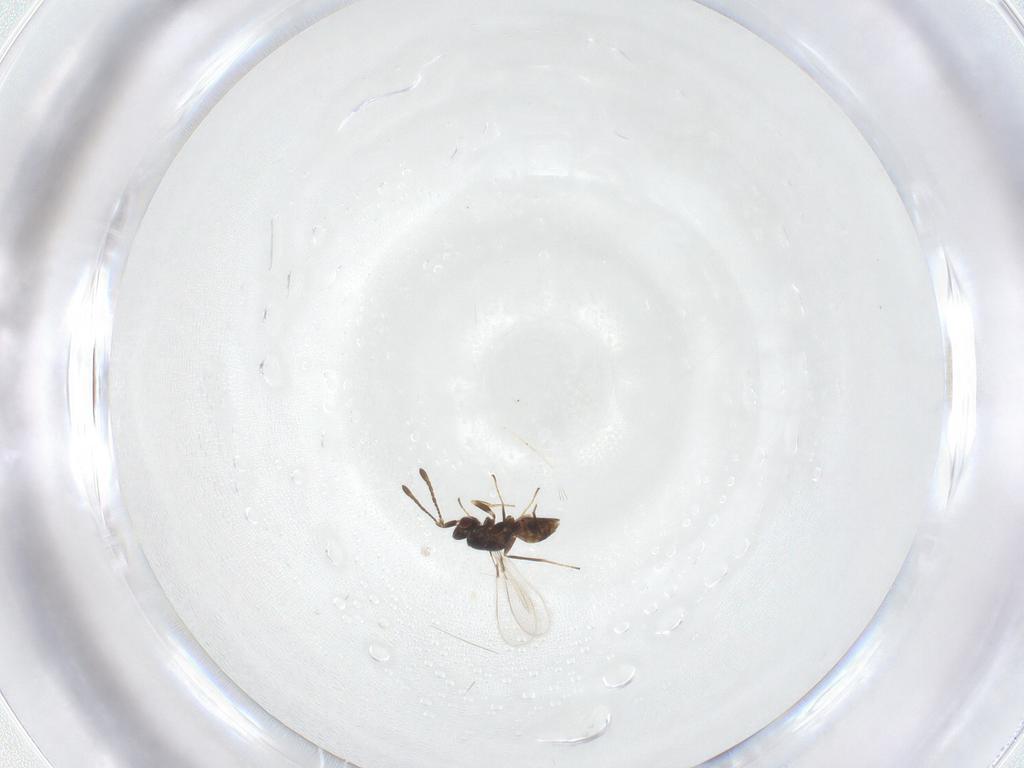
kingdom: Animalia
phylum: Arthropoda
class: Insecta
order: Hymenoptera
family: Mymaridae
